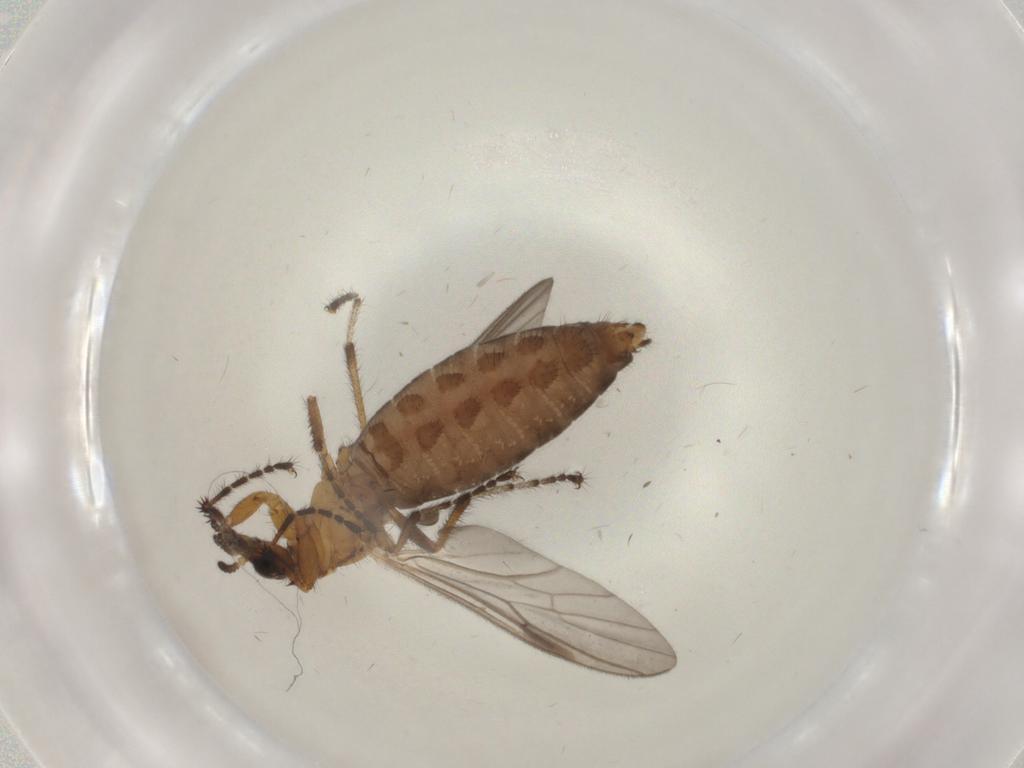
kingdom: Animalia
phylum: Arthropoda
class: Insecta
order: Diptera
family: Bibionidae
